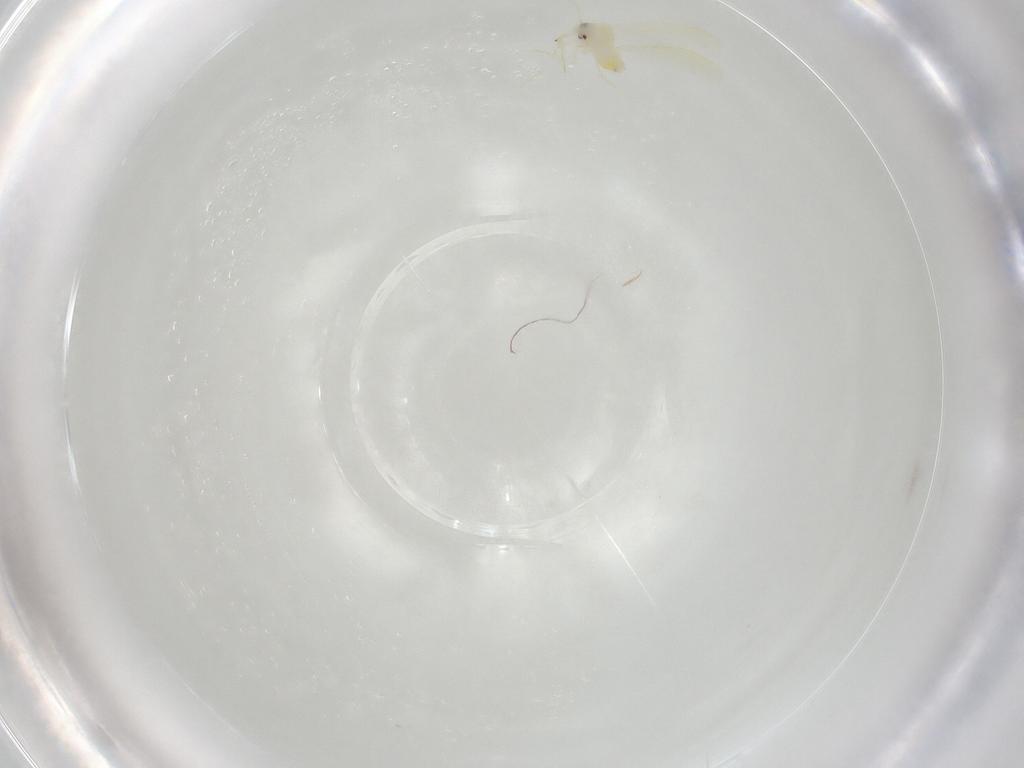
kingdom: Animalia
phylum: Arthropoda
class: Insecta
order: Hemiptera
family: Aleyrodidae
